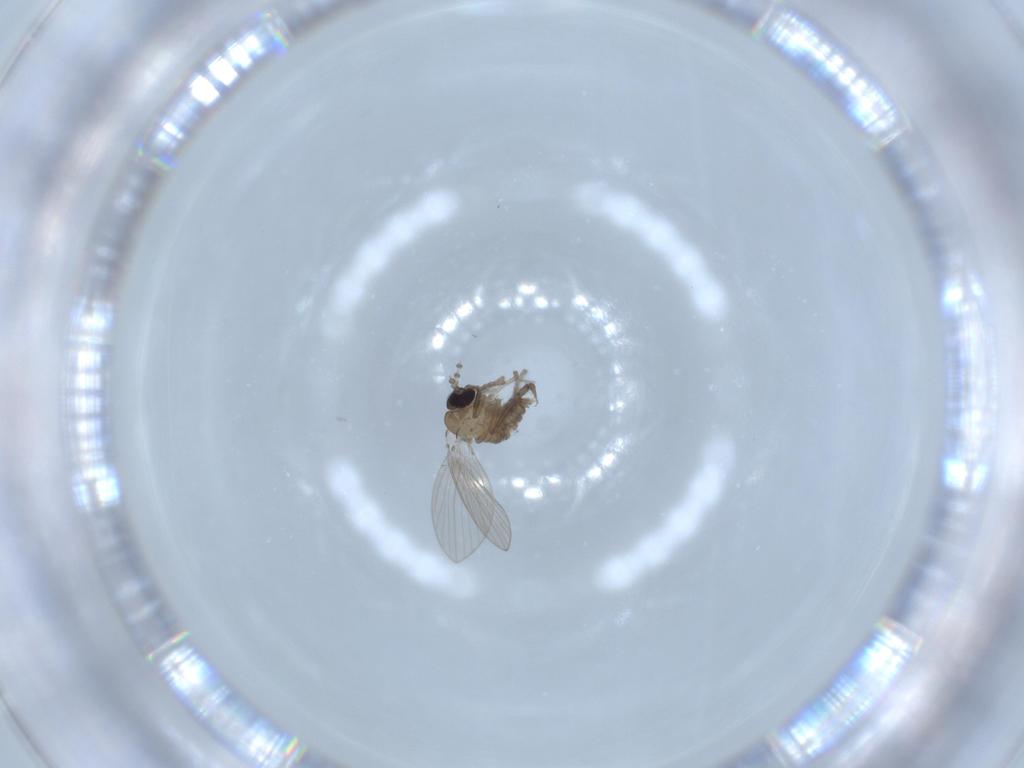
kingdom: Animalia
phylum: Arthropoda
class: Insecta
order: Diptera
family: Psychodidae
